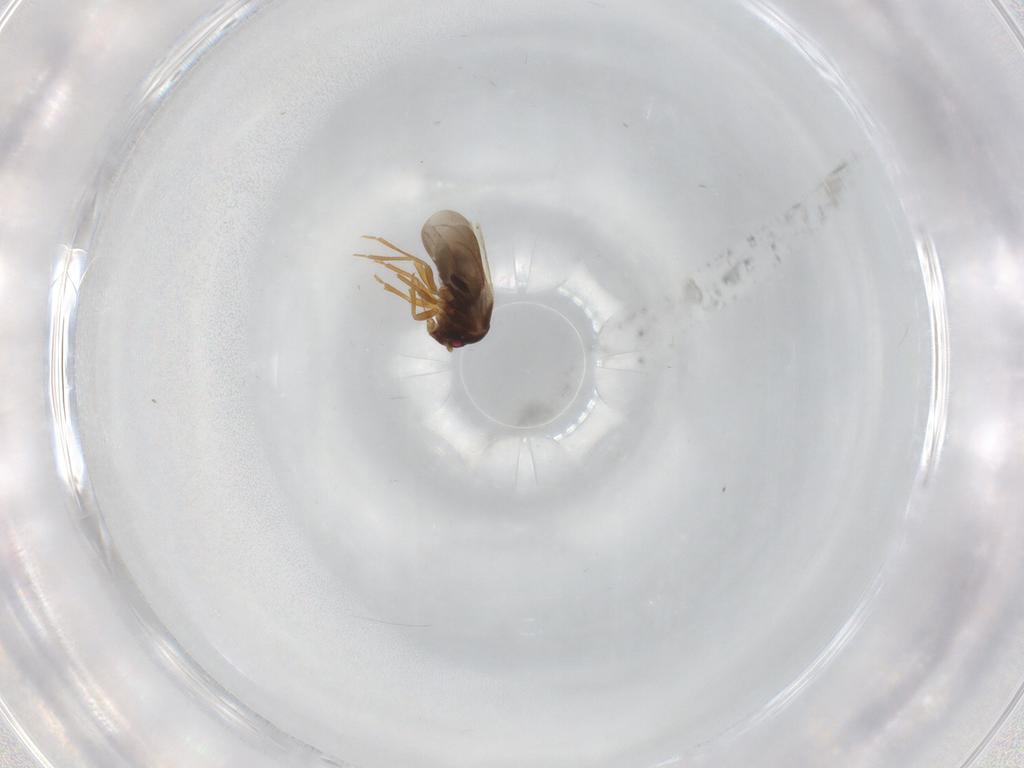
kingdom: Animalia
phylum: Arthropoda
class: Insecta
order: Hemiptera
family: Schizopteridae
